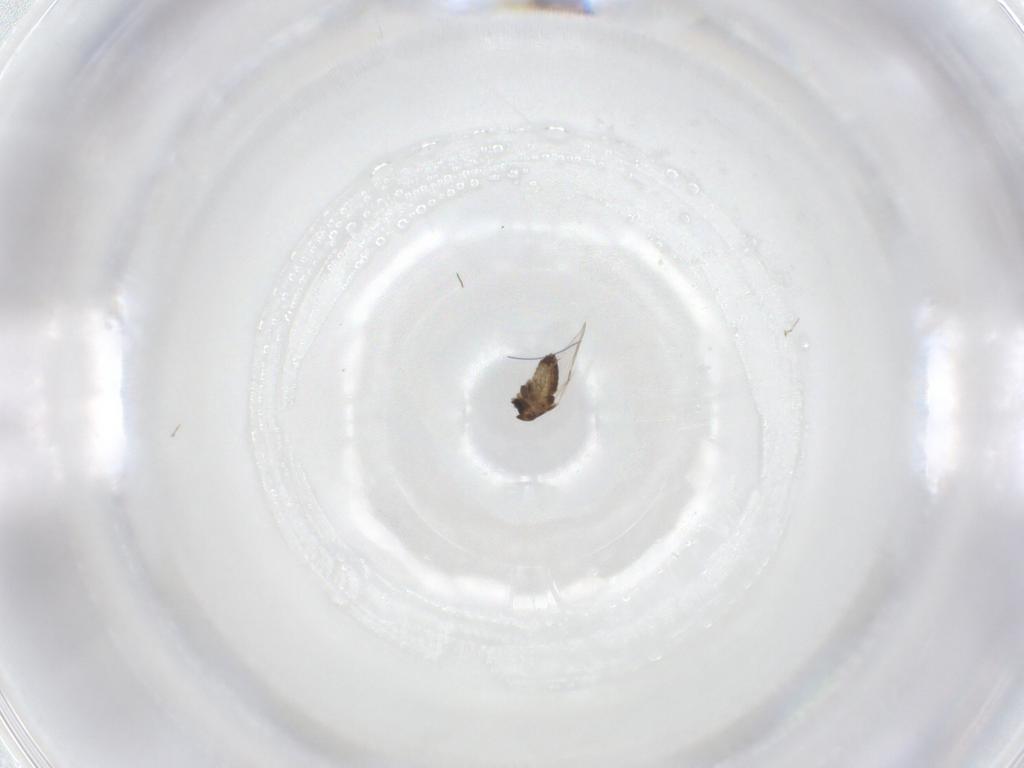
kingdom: Animalia
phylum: Arthropoda
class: Insecta
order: Diptera
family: Chironomidae
